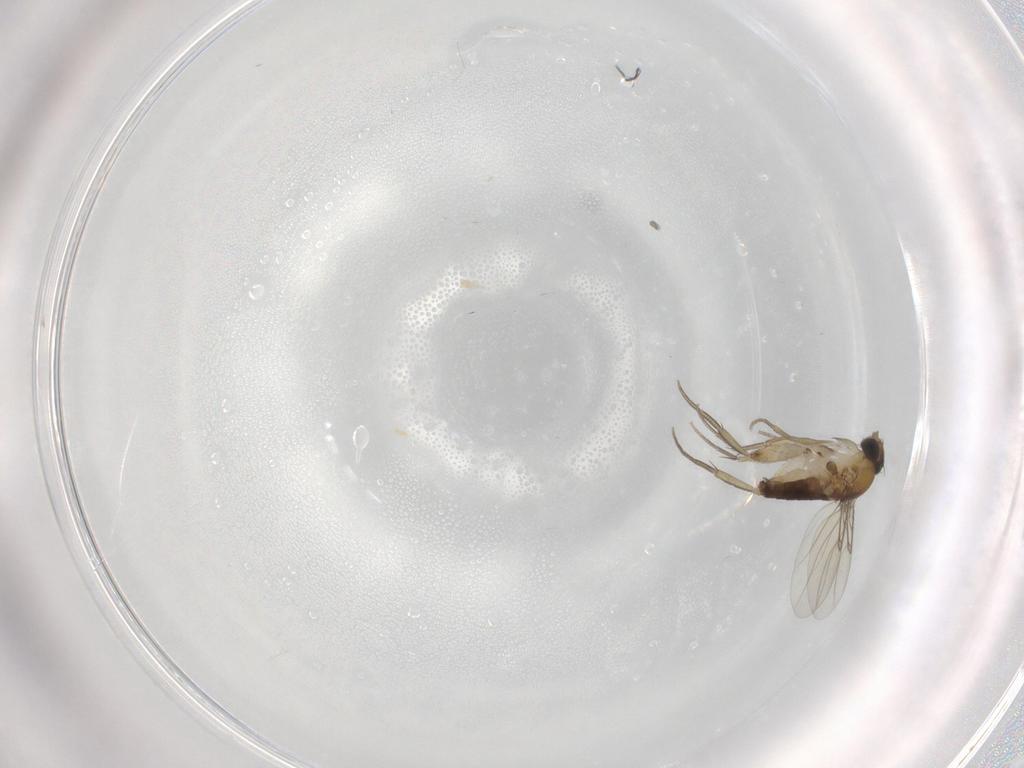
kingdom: Animalia
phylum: Arthropoda
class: Insecta
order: Diptera
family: Phoridae
